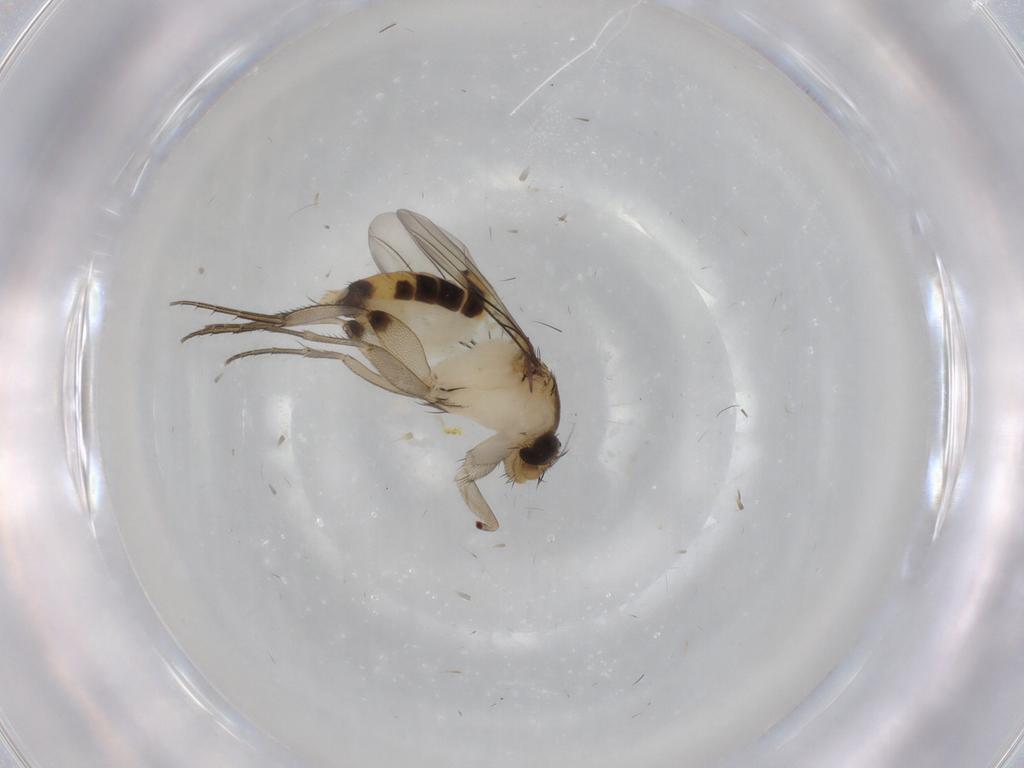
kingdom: Animalia
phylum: Arthropoda
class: Insecta
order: Diptera
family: Phoridae
